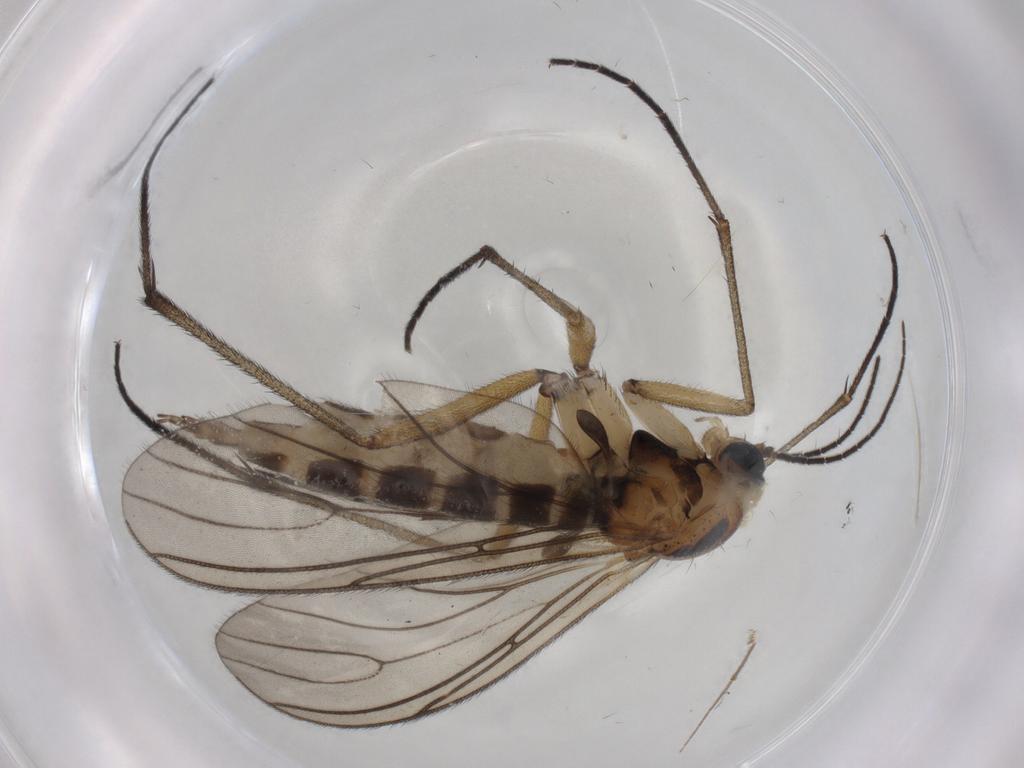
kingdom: Animalia
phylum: Arthropoda
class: Insecta
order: Diptera
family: Sciaridae
